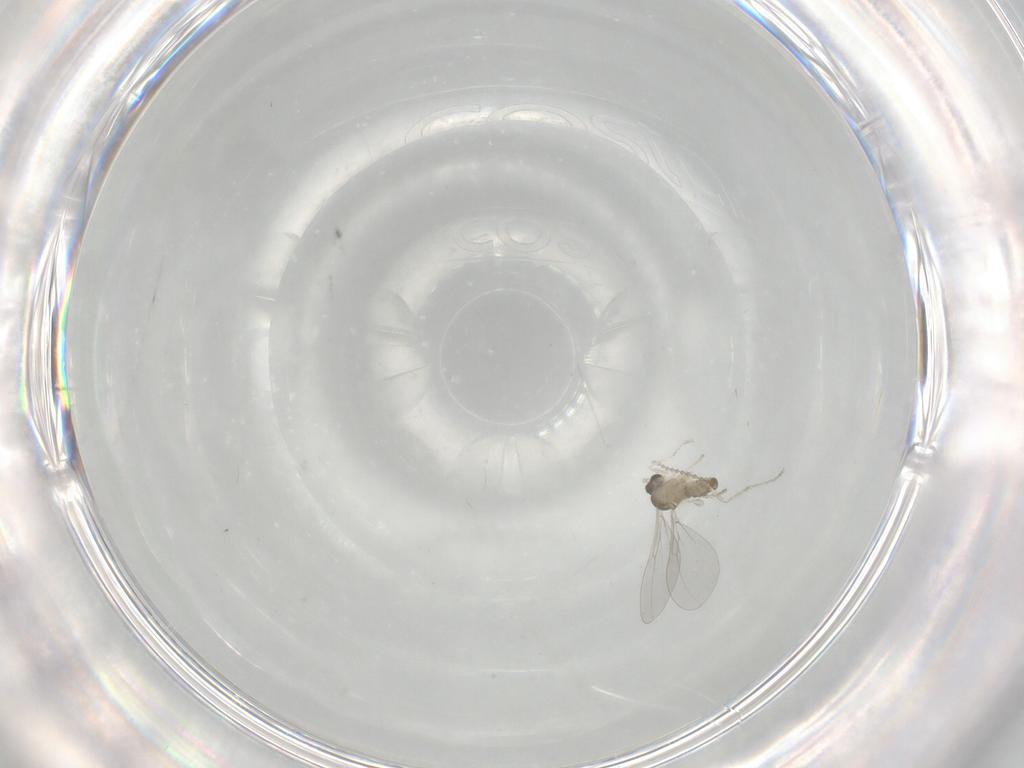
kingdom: Animalia
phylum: Arthropoda
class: Insecta
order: Diptera
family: Cecidomyiidae
